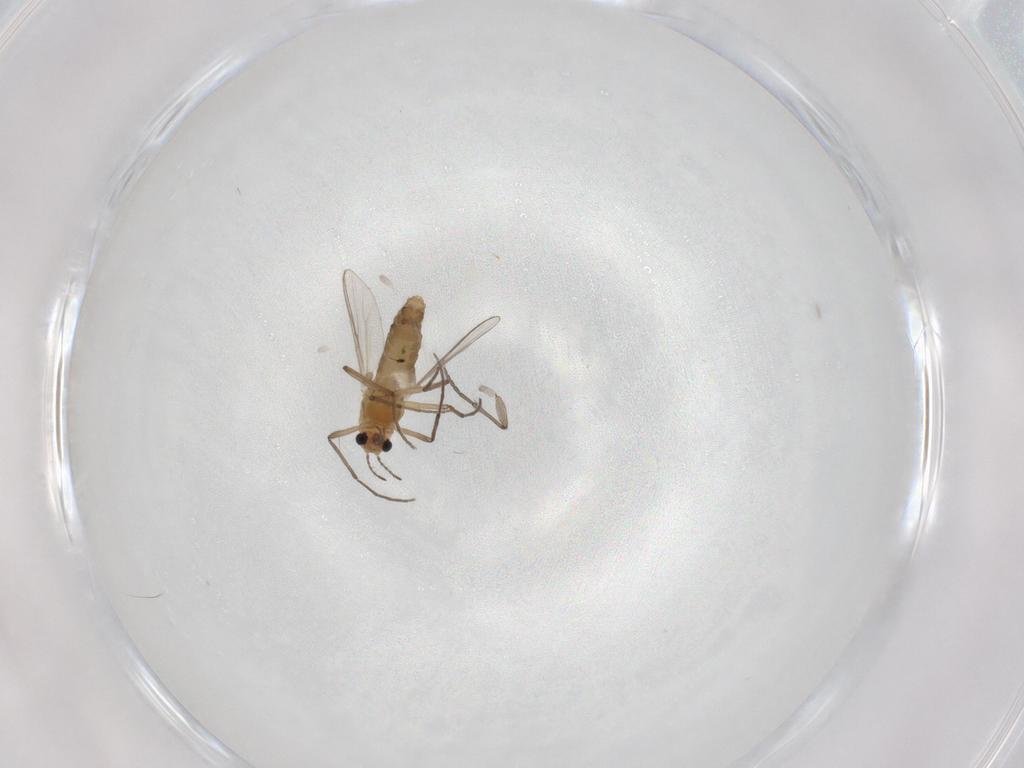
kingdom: Animalia
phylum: Arthropoda
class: Insecta
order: Diptera
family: Chironomidae
